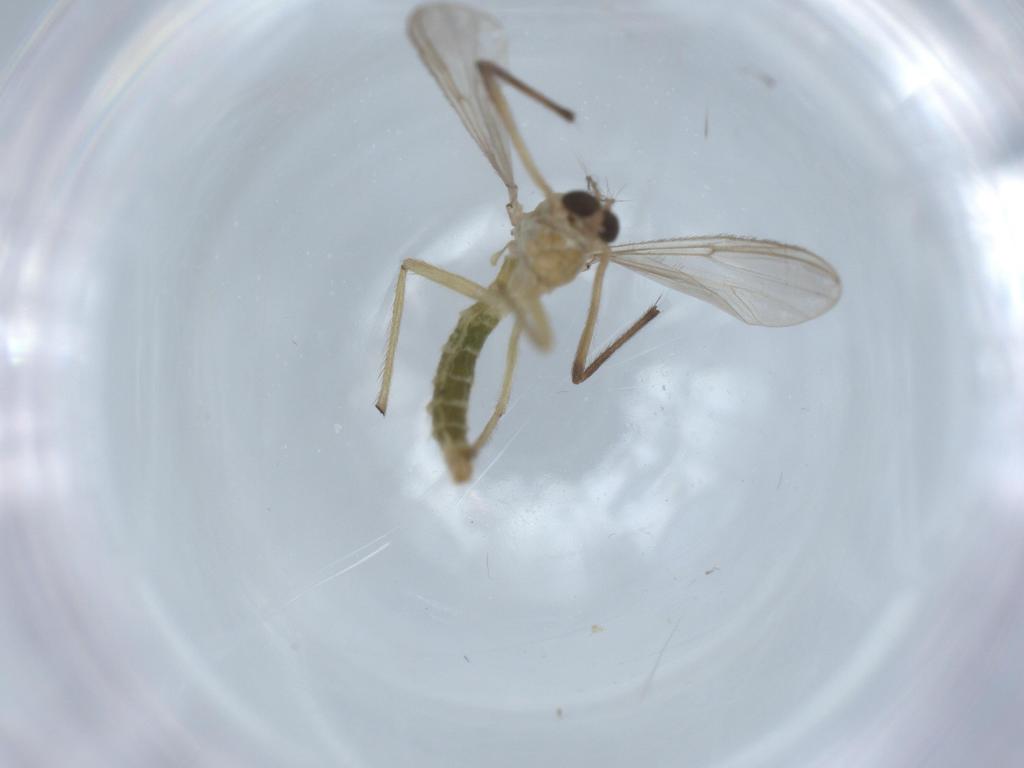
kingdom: Animalia
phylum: Arthropoda
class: Insecta
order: Diptera
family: Chironomidae
